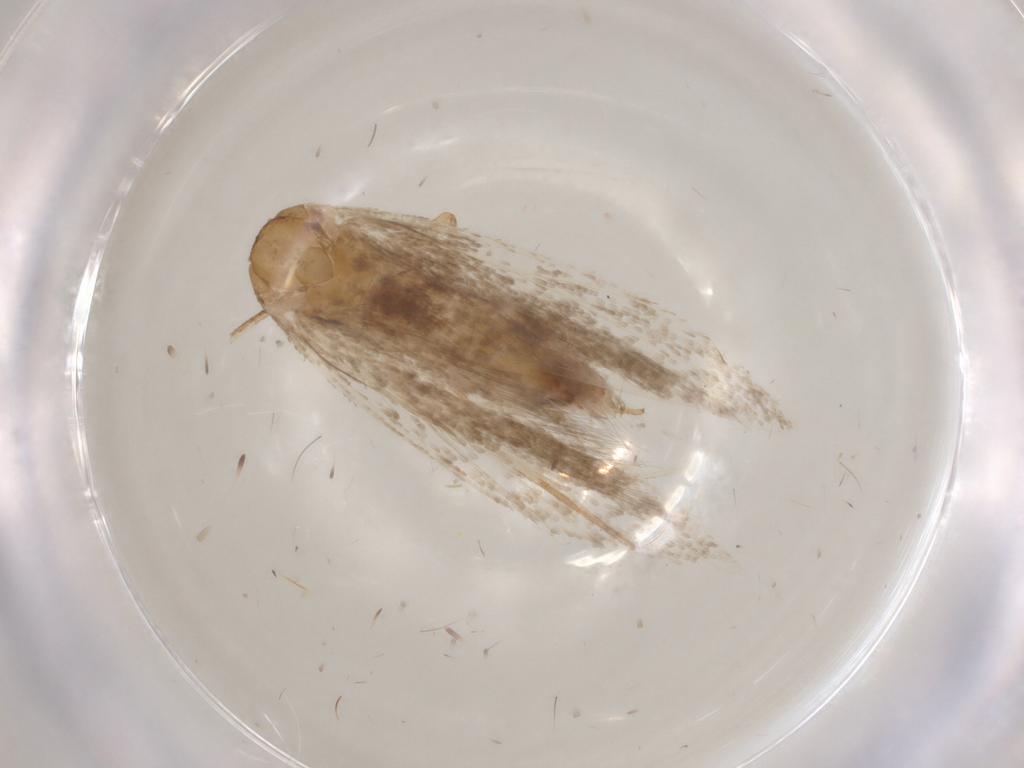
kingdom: Animalia
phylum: Arthropoda
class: Insecta
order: Lepidoptera
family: Gelechiidae
